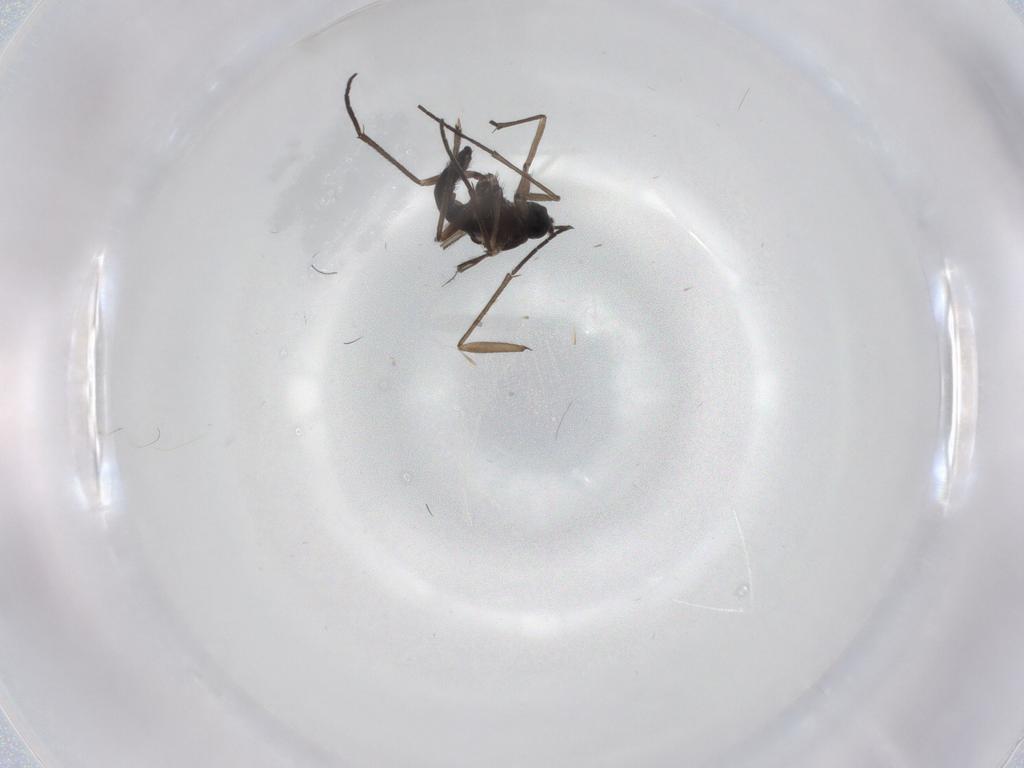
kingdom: Animalia
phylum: Arthropoda
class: Insecta
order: Diptera
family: Sciaridae
